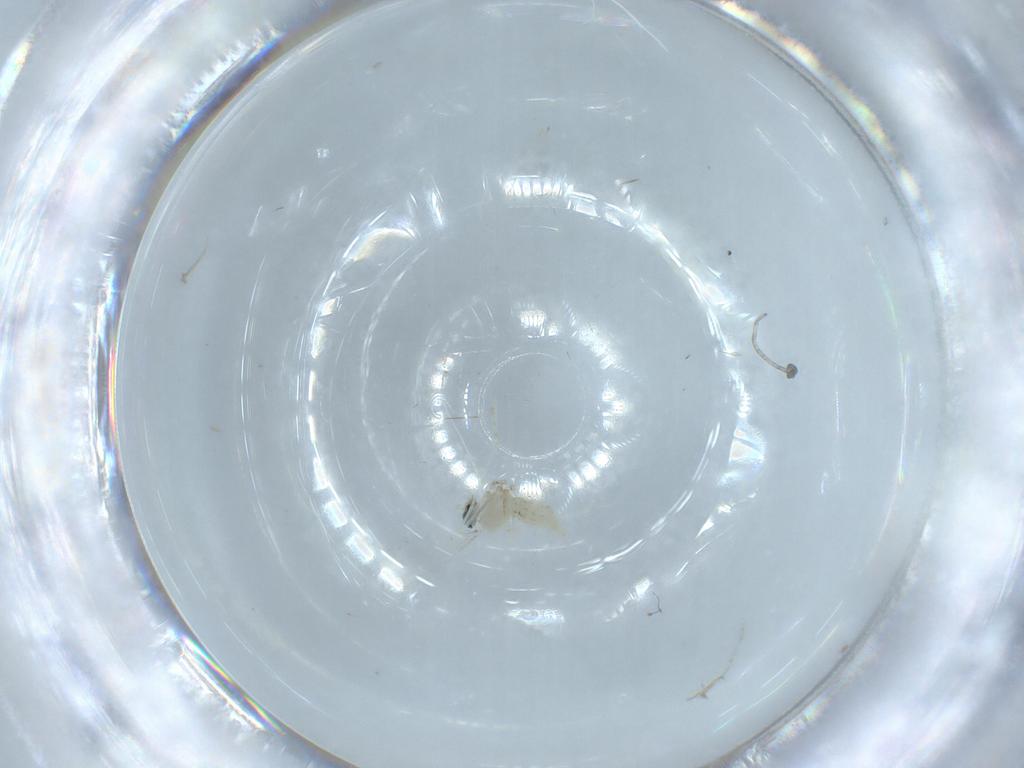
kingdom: Animalia
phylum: Arthropoda
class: Insecta
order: Diptera
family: Cecidomyiidae
